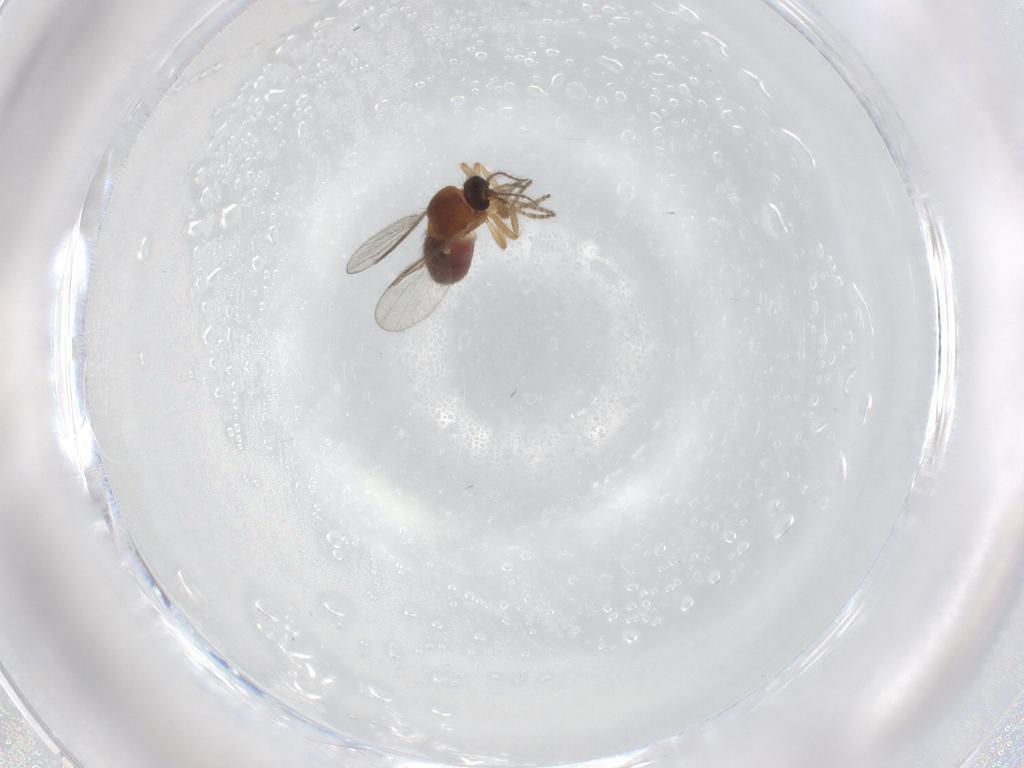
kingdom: Animalia
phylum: Arthropoda
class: Insecta
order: Diptera
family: Ceratopogonidae
